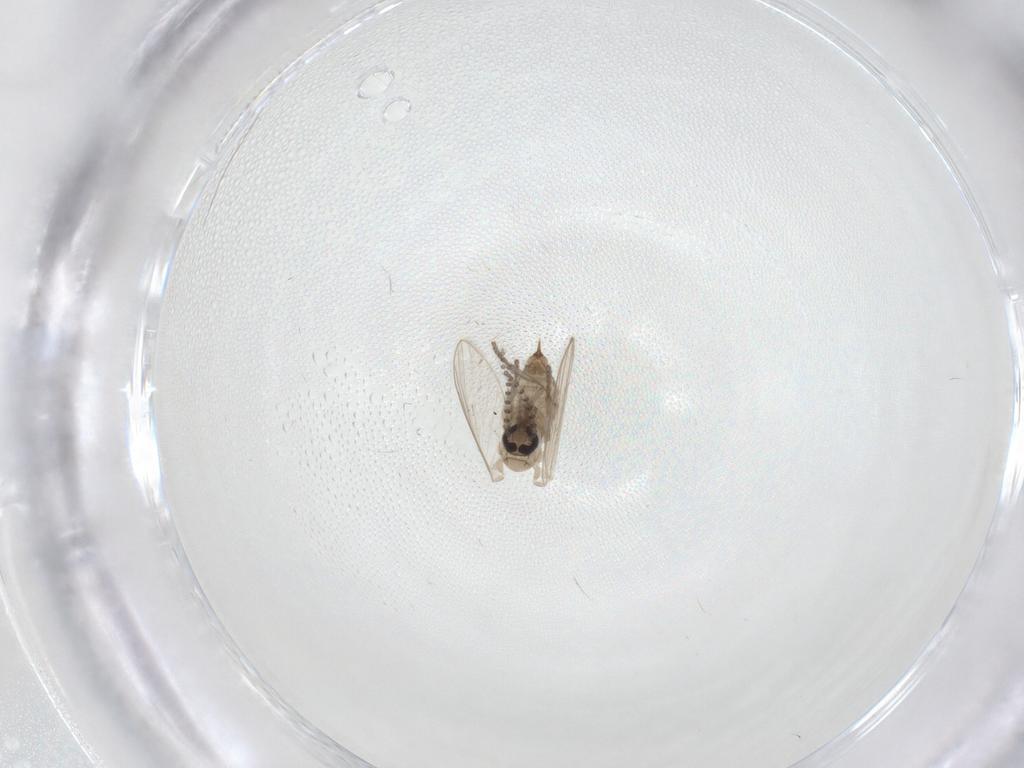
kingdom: Animalia
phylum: Arthropoda
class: Insecta
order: Diptera
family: Psychodidae
